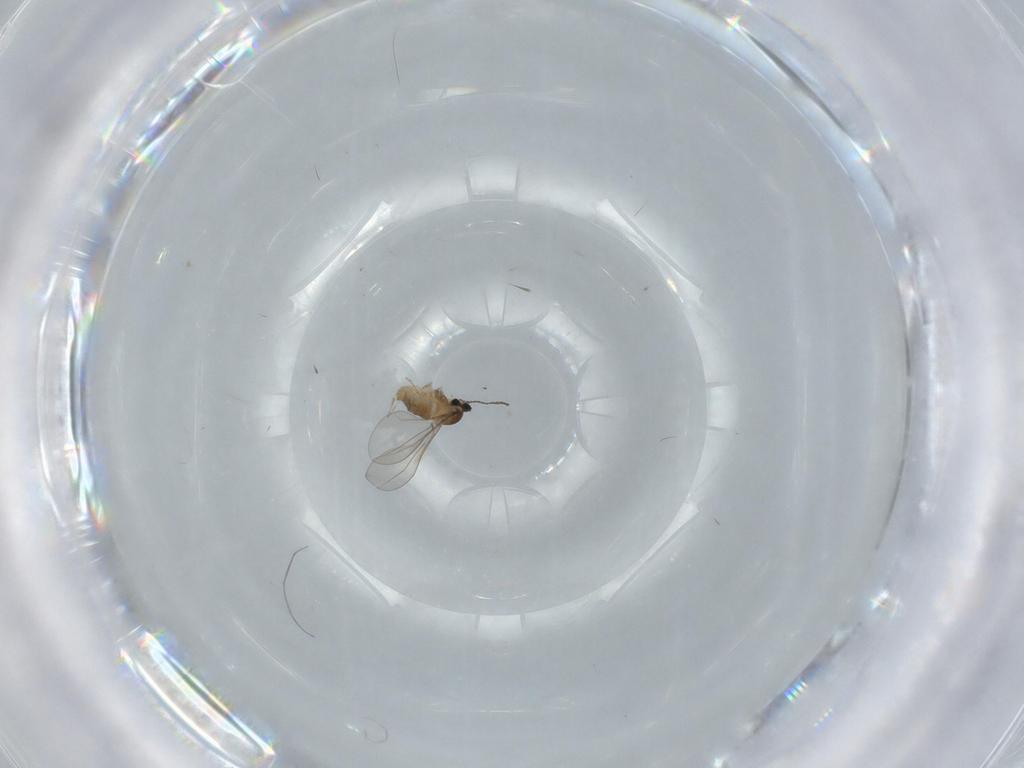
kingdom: Animalia
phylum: Arthropoda
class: Insecta
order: Diptera
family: Cecidomyiidae
